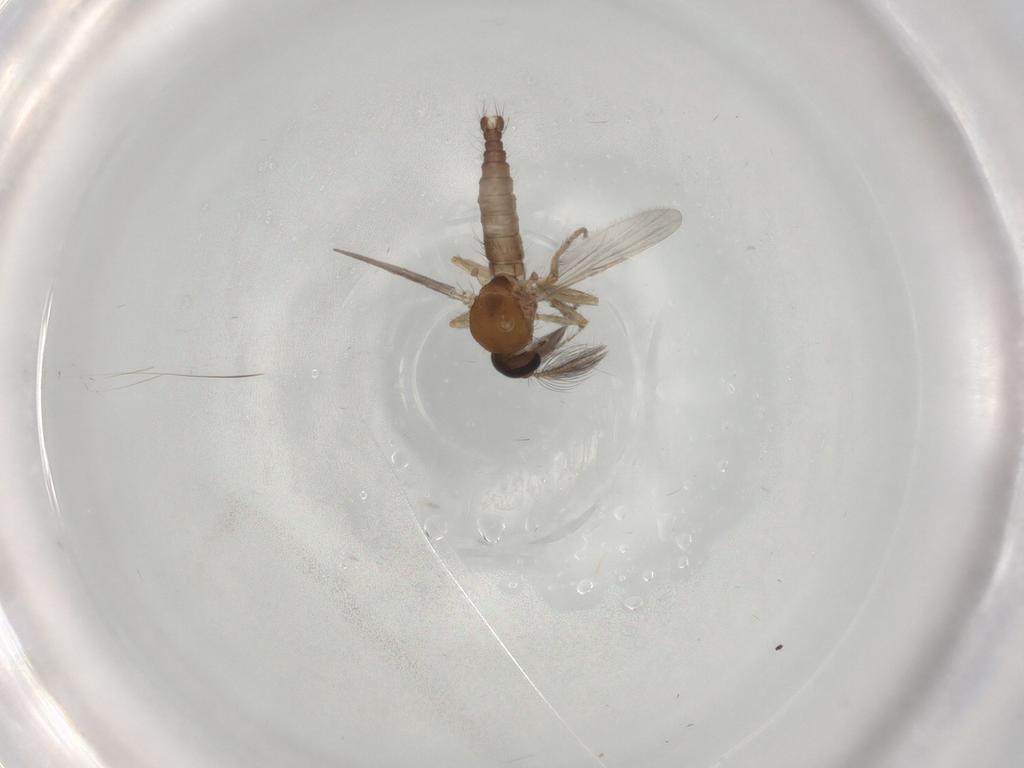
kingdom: Animalia
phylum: Arthropoda
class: Insecta
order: Diptera
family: Ceratopogonidae
